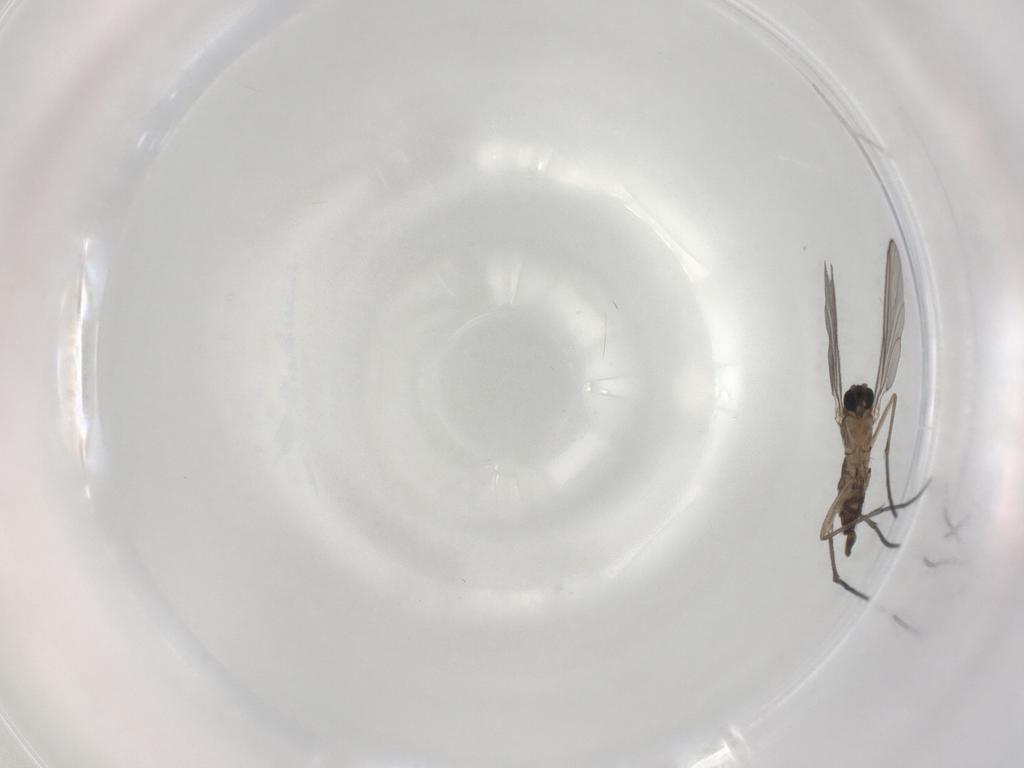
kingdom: Animalia
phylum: Arthropoda
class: Insecta
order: Diptera
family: Sciaridae
